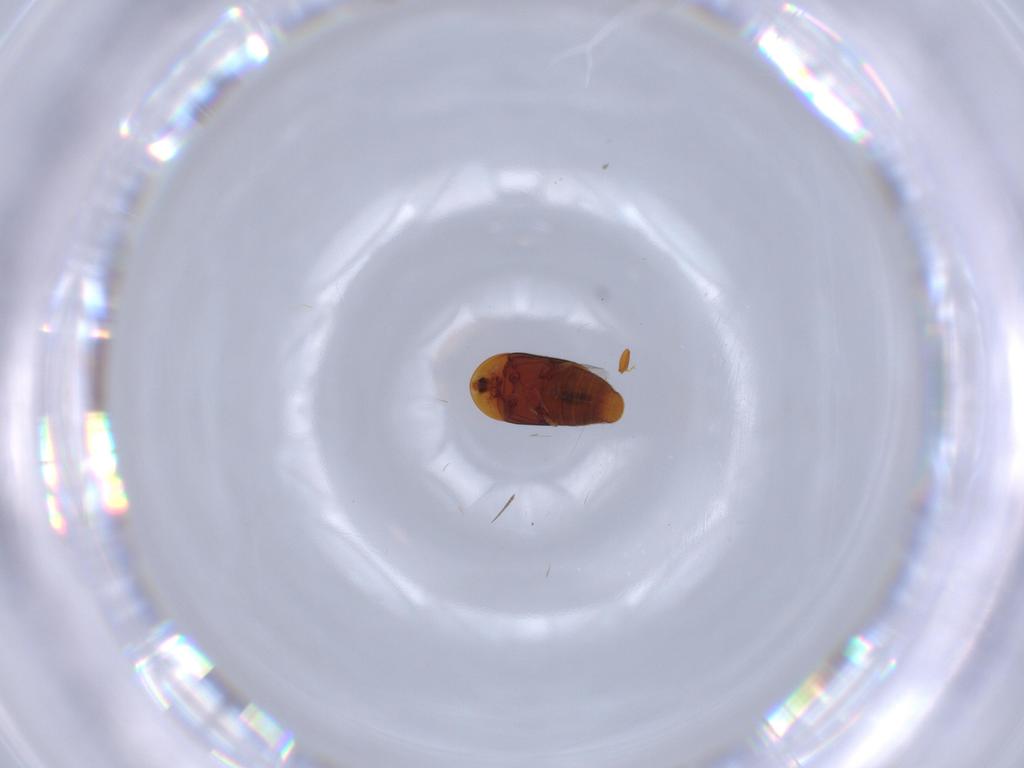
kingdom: Animalia
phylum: Arthropoda
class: Insecta
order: Coleoptera
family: Corylophidae
